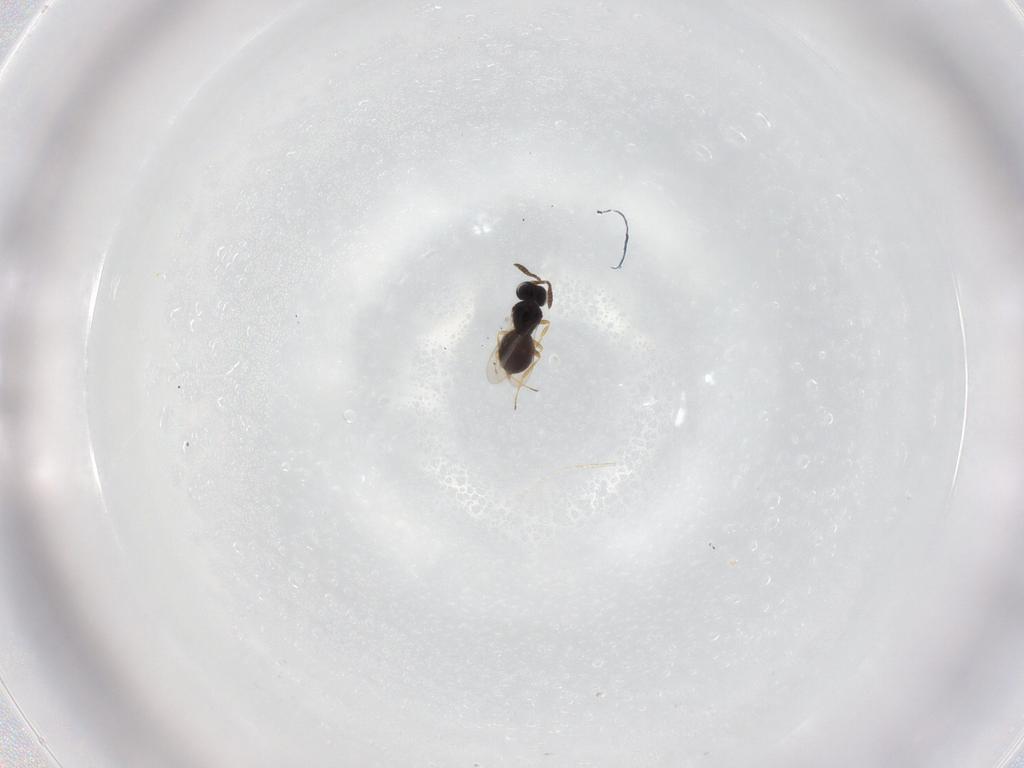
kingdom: Animalia
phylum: Arthropoda
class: Insecta
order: Hymenoptera
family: Scelionidae
